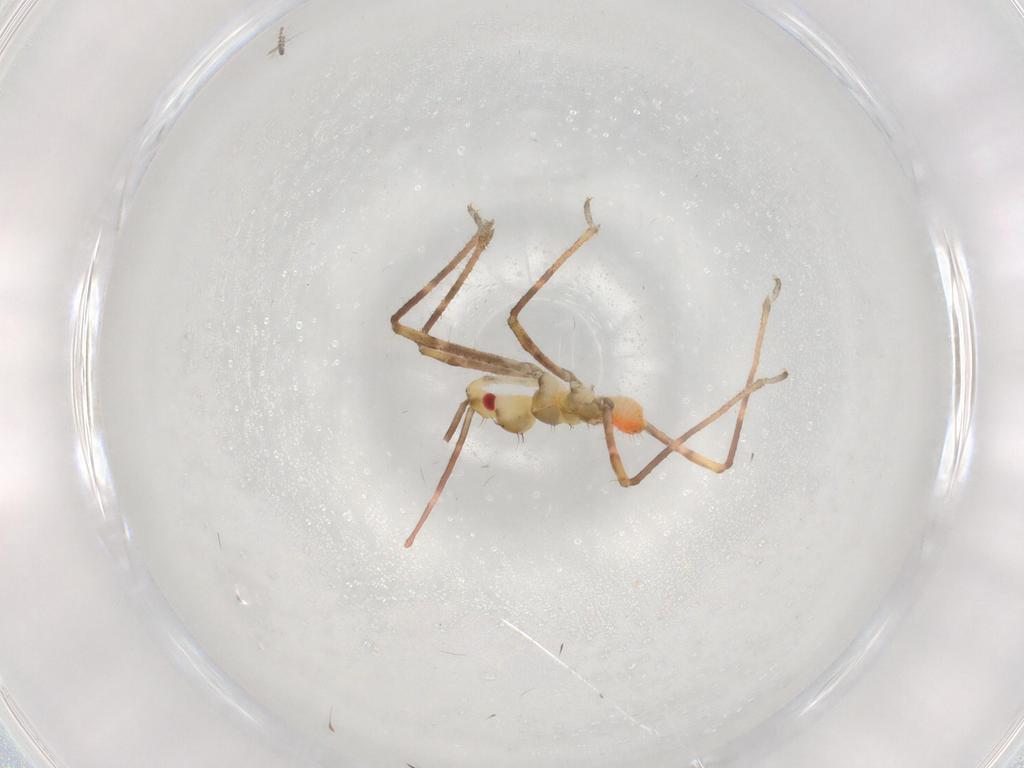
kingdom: Animalia
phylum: Arthropoda
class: Insecta
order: Hemiptera
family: Reduviidae
